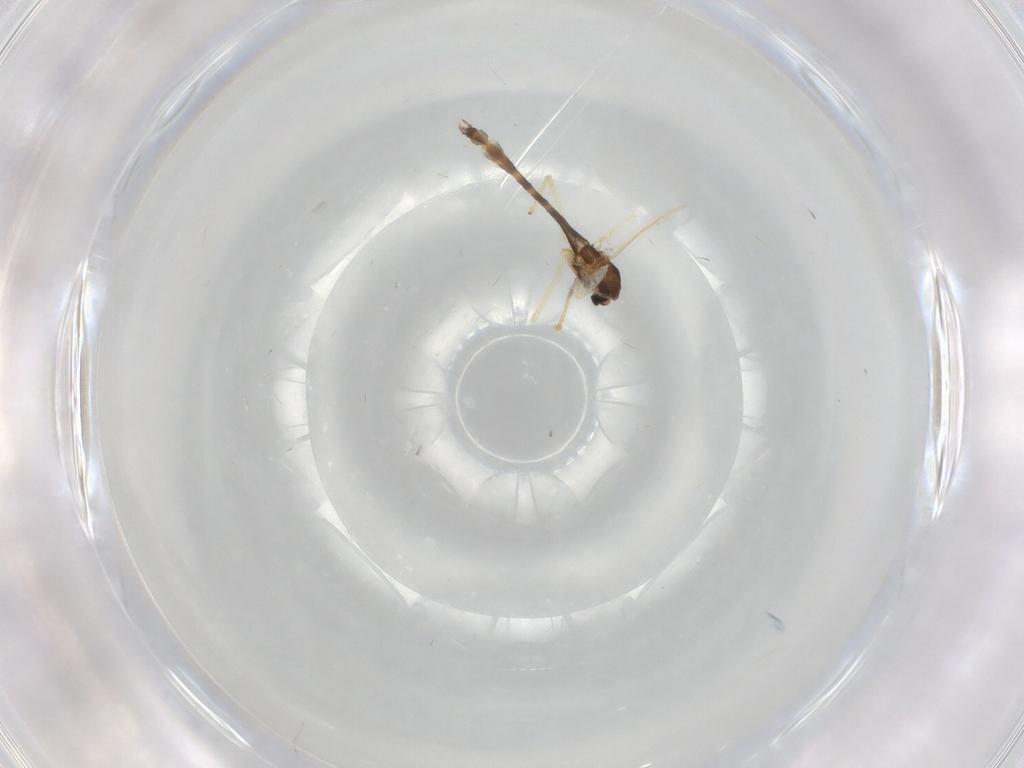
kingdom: Animalia
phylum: Arthropoda
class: Insecta
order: Diptera
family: Chironomidae
